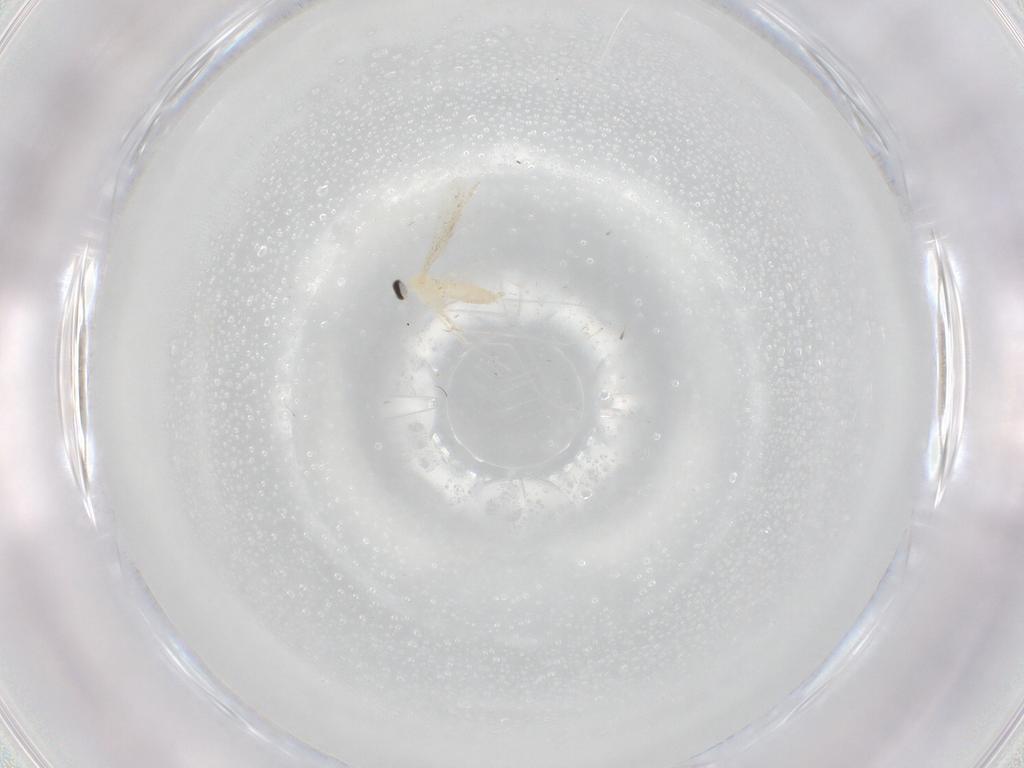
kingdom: Animalia
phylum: Arthropoda
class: Insecta
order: Diptera
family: Cecidomyiidae
